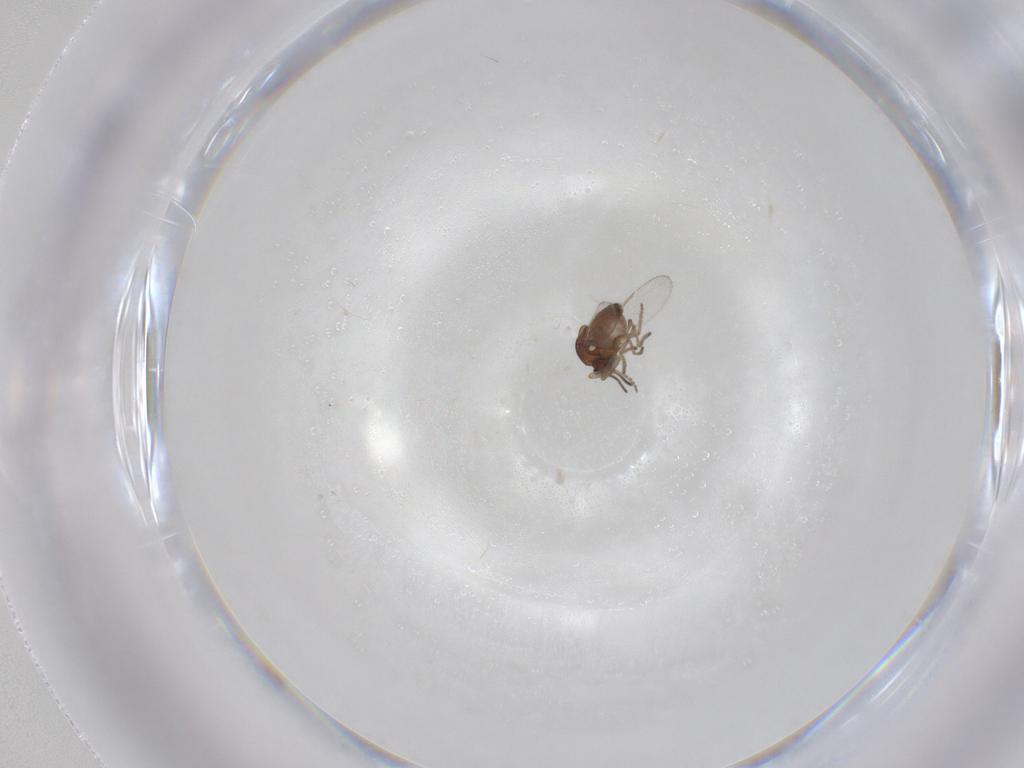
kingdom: Animalia
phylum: Arthropoda
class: Insecta
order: Diptera
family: Ceratopogonidae
